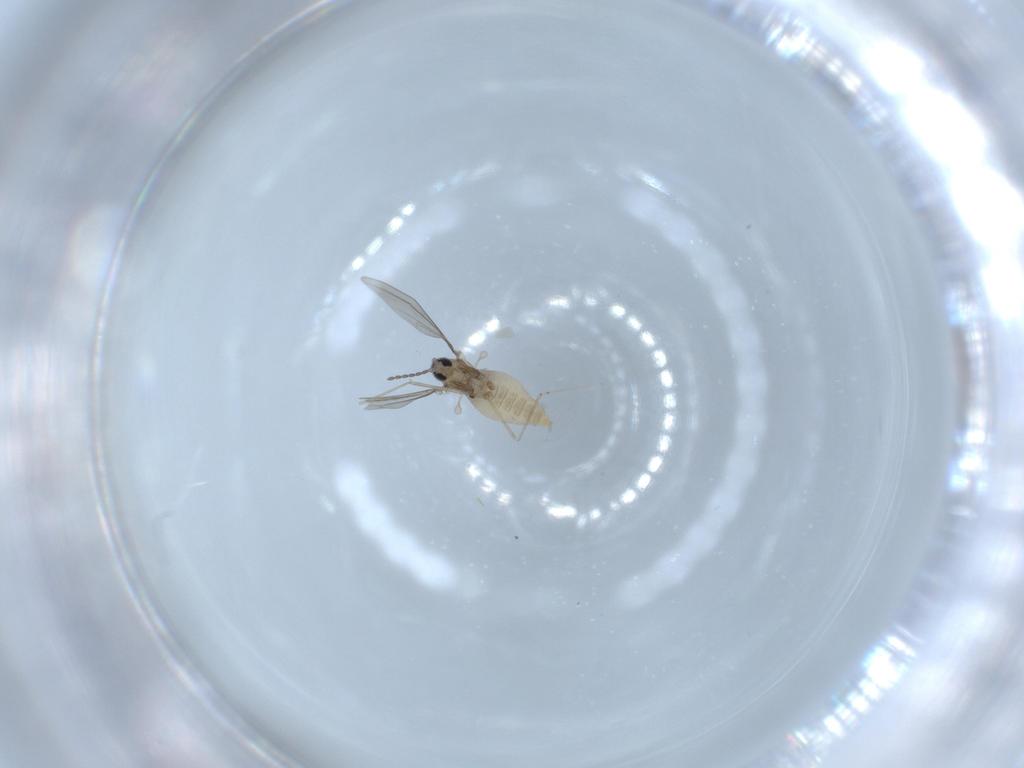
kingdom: Animalia
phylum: Arthropoda
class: Insecta
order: Diptera
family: Cecidomyiidae
